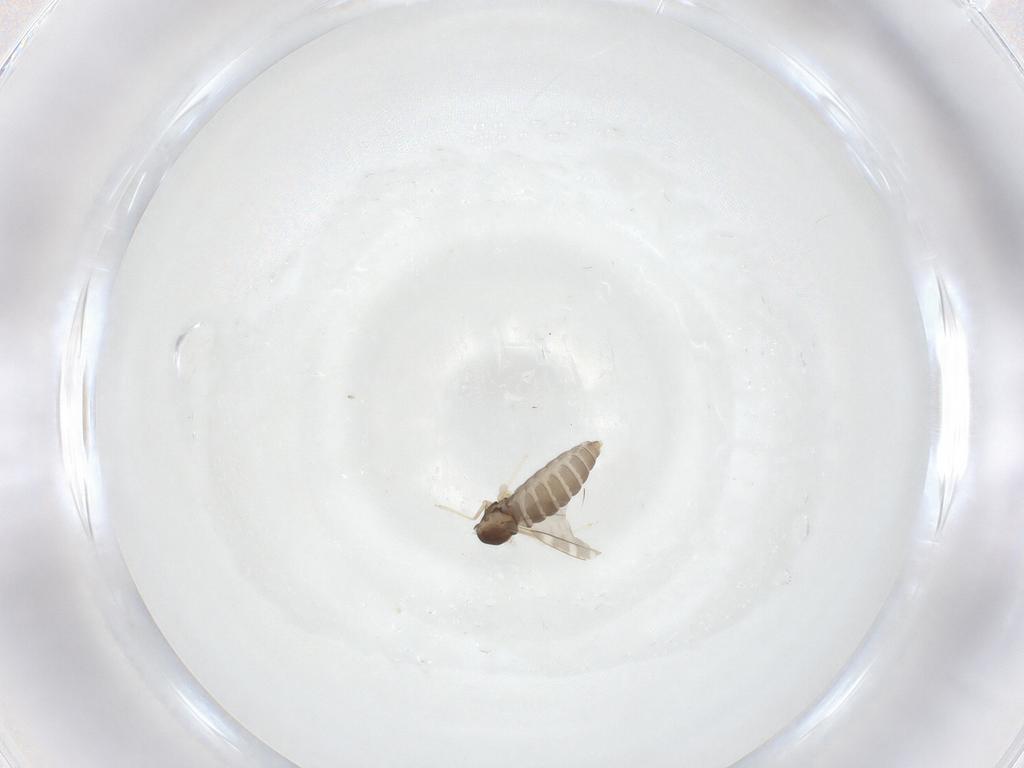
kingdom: Animalia
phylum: Arthropoda
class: Insecta
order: Diptera
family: Cecidomyiidae
